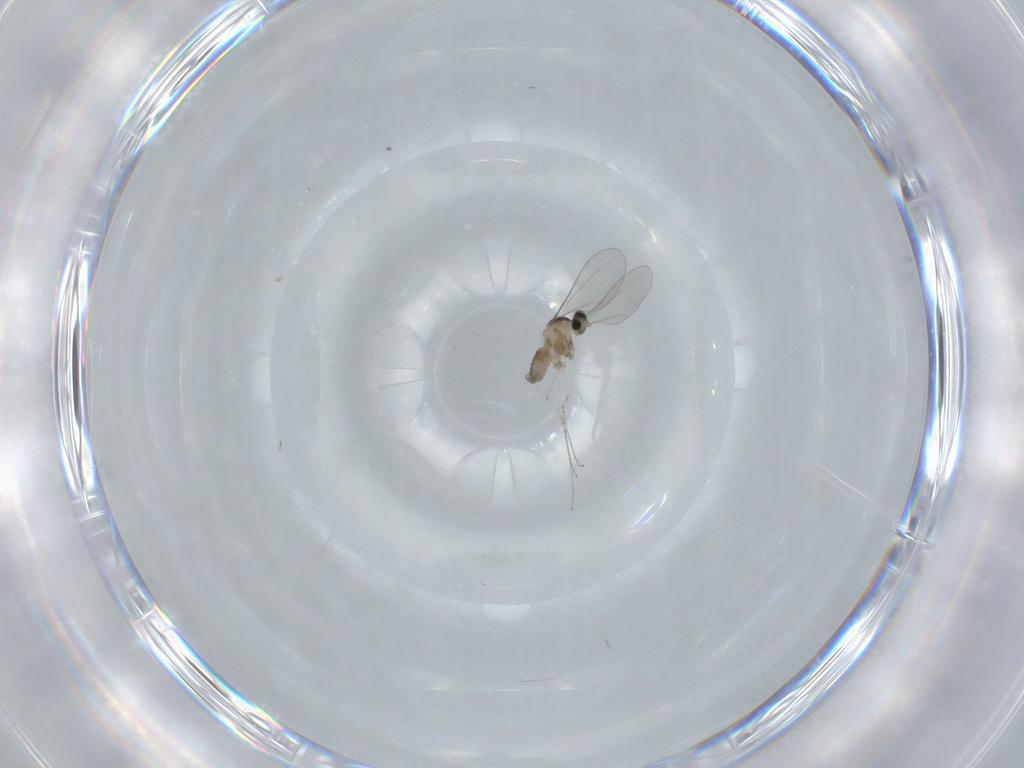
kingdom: Animalia
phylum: Arthropoda
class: Insecta
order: Diptera
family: Cecidomyiidae
